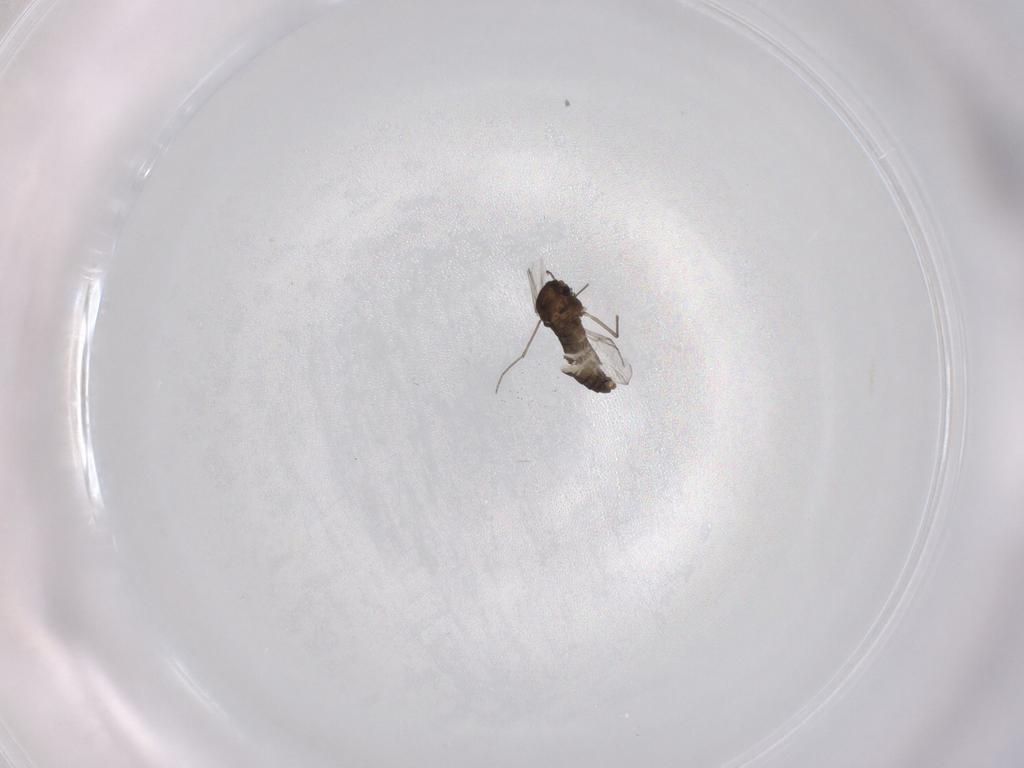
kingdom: Animalia
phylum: Arthropoda
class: Insecta
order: Diptera
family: Chironomidae
